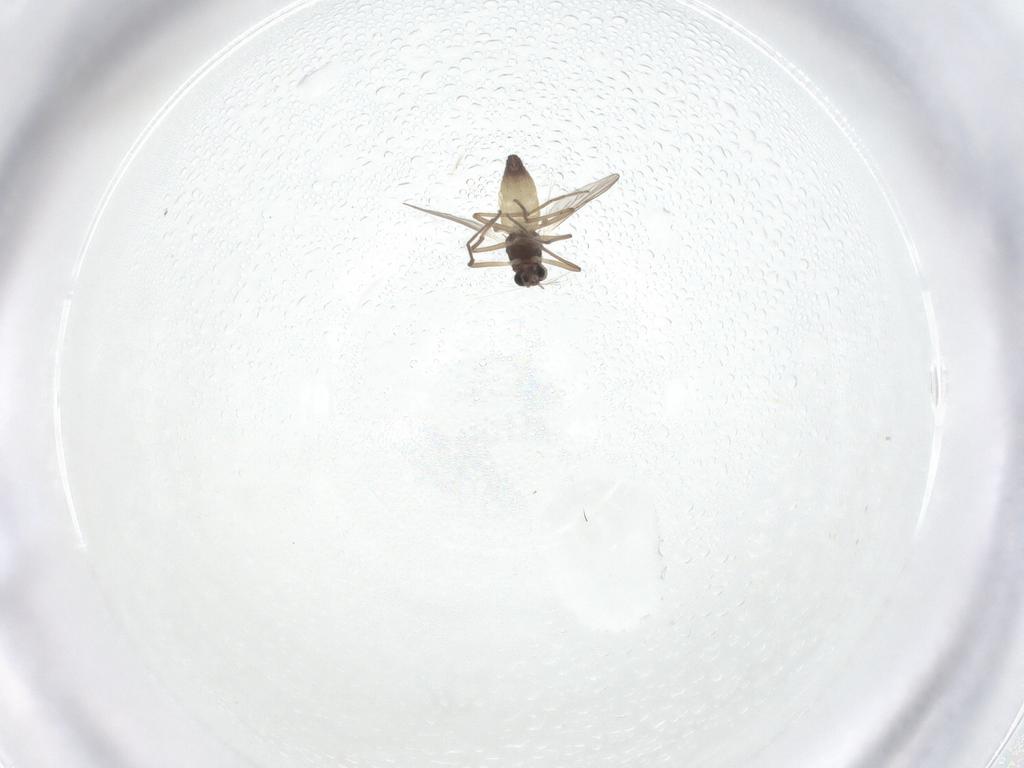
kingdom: Animalia
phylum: Arthropoda
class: Insecta
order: Diptera
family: Chironomidae
